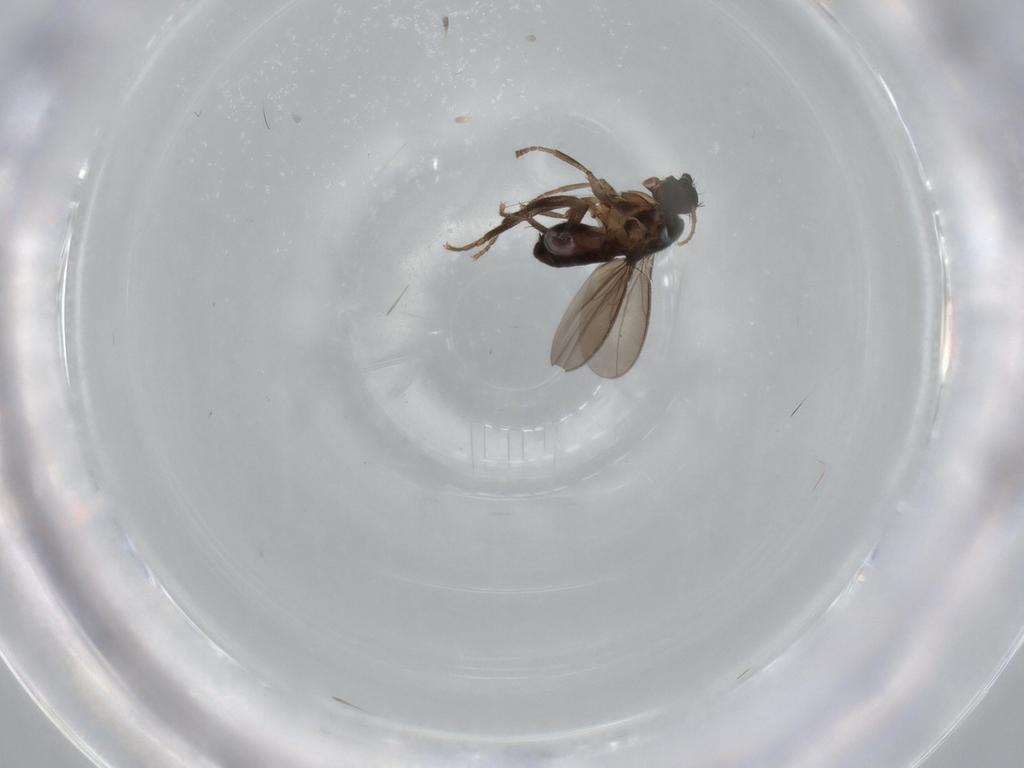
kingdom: Animalia
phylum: Arthropoda
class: Insecta
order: Diptera
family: Sphaeroceridae
